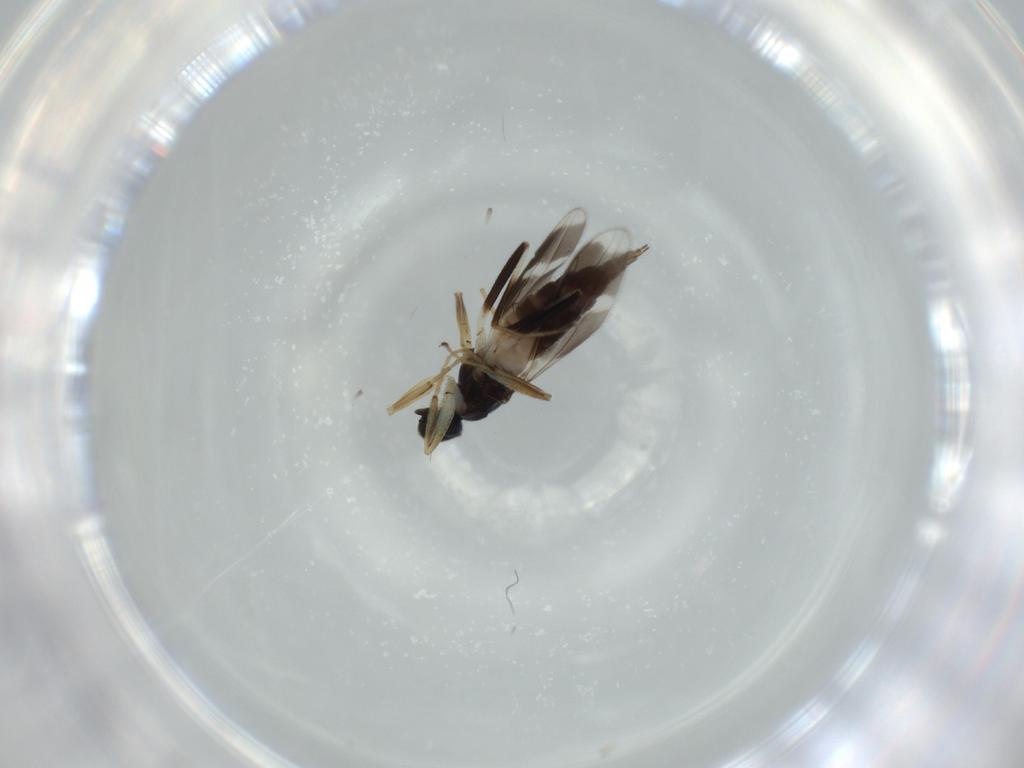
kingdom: Animalia
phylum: Arthropoda
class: Insecta
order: Diptera
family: Hybotidae
